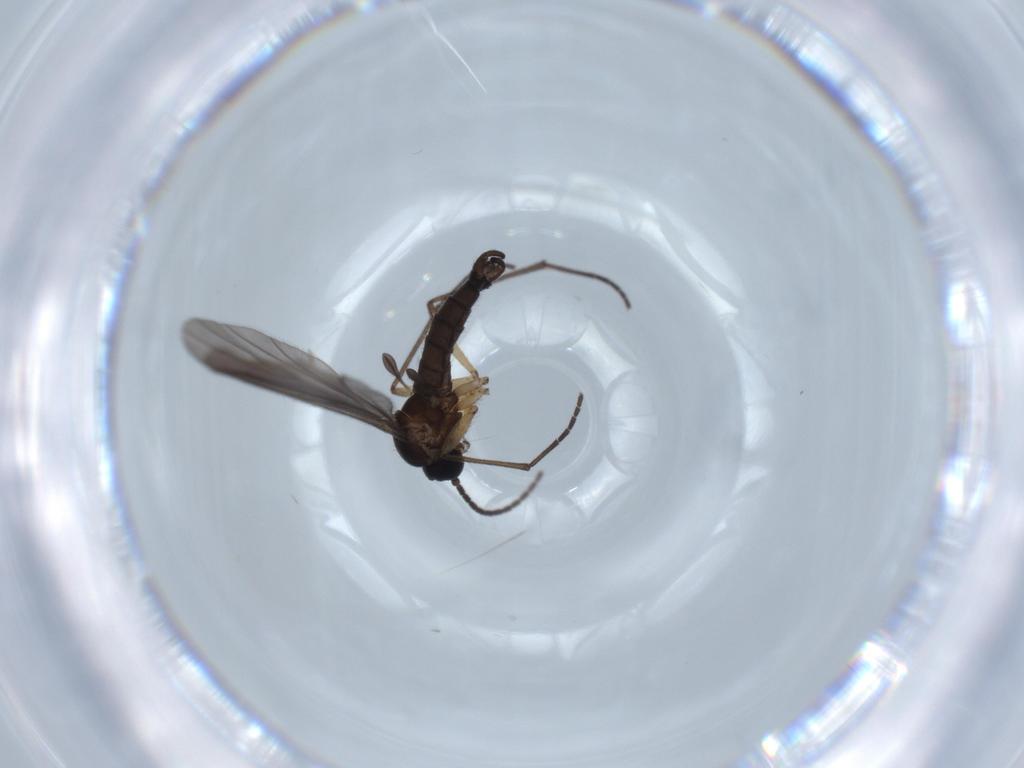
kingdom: Animalia
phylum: Arthropoda
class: Insecta
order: Diptera
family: Sciaridae
